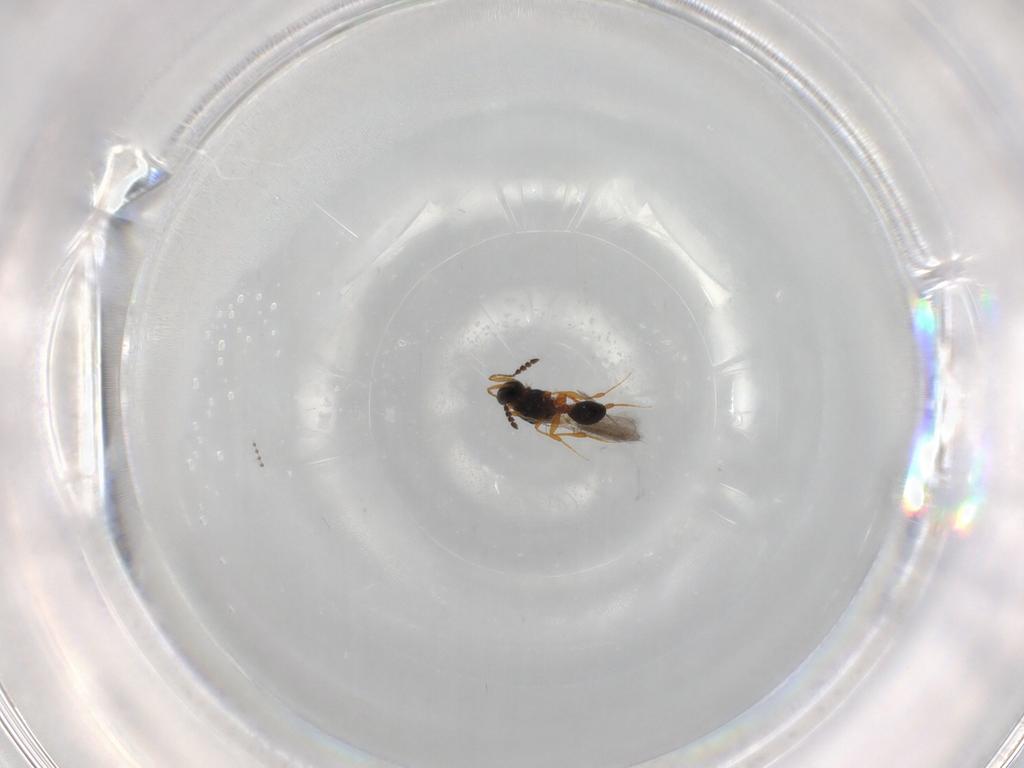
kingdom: Animalia
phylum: Arthropoda
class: Insecta
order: Hymenoptera
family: Platygastridae
